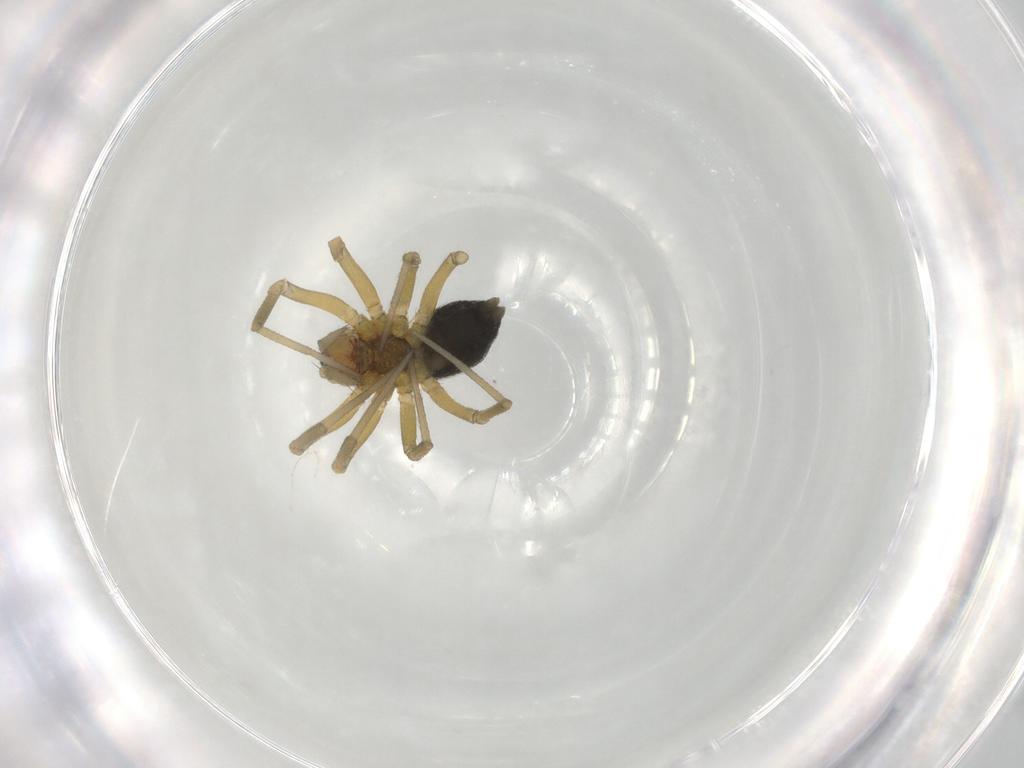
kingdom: Animalia
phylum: Arthropoda
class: Arachnida
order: Araneae
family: Linyphiidae
